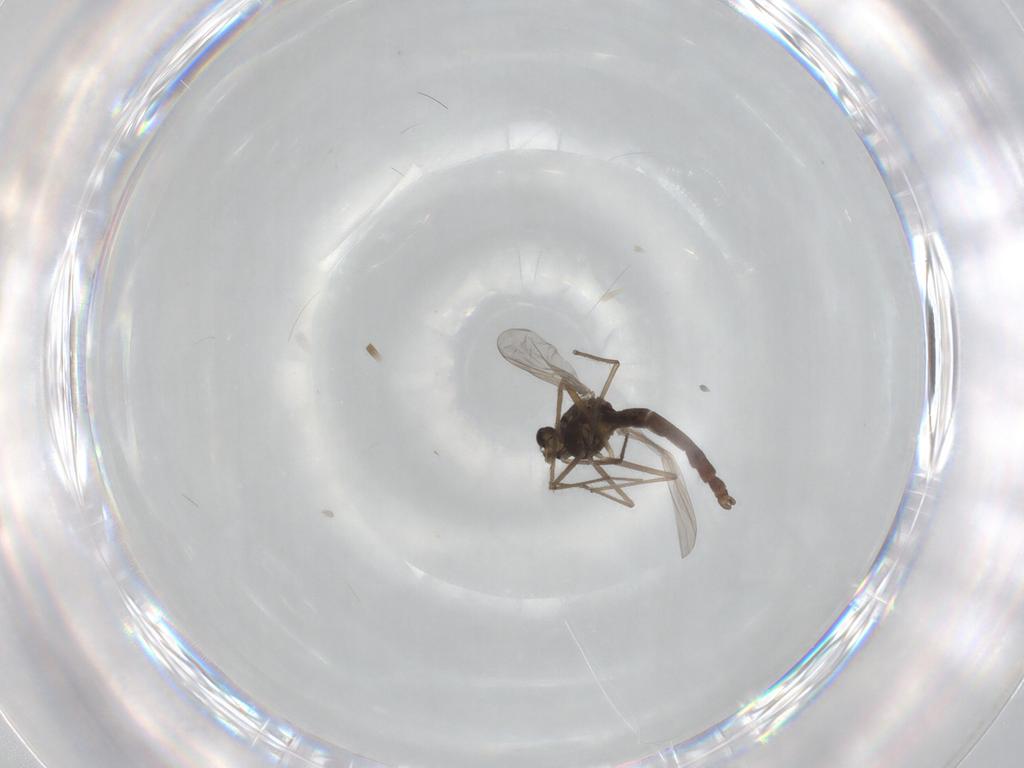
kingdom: Animalia
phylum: Arthropoda
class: Insecta
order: Diptera
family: Chironomidae
